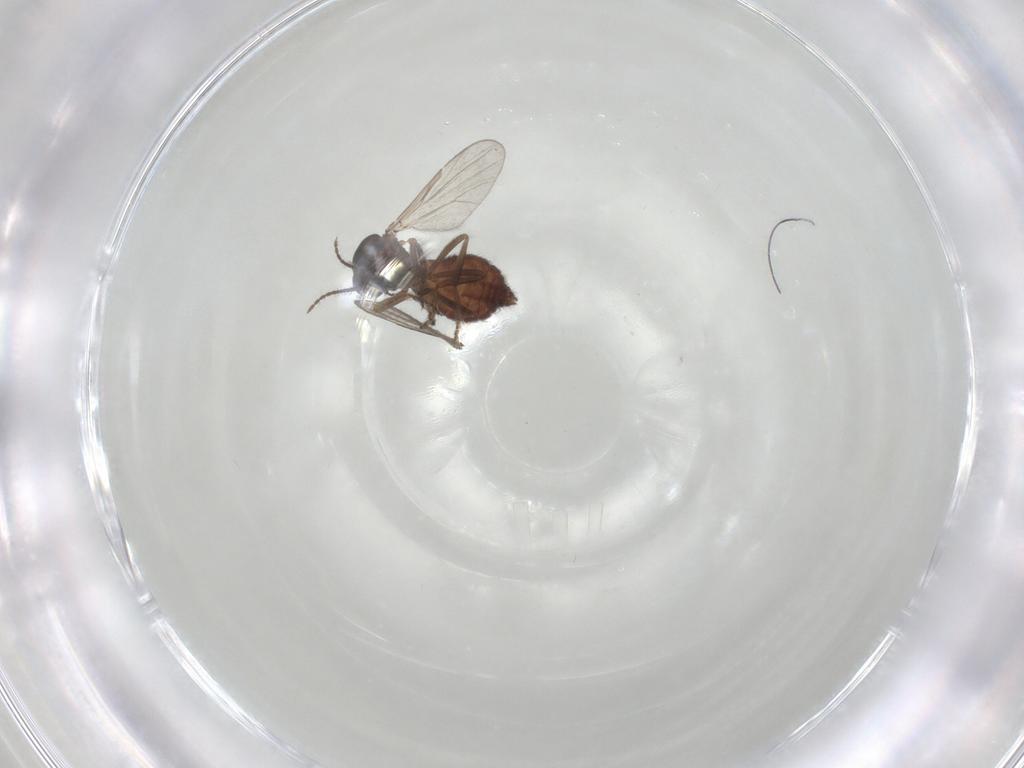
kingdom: Animalia
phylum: Arthropoda
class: Insecta
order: Diptera
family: Ceratopogonidae
